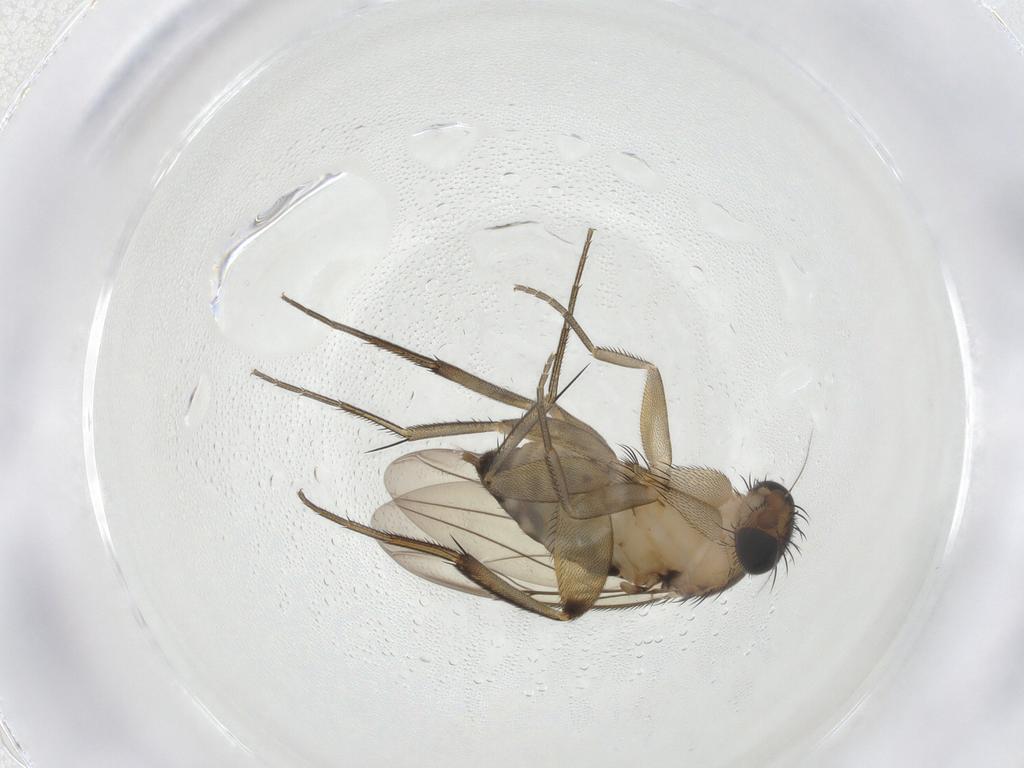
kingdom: Animalia
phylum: Arthropoda
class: Insecta
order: Diptera
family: Phoridae
